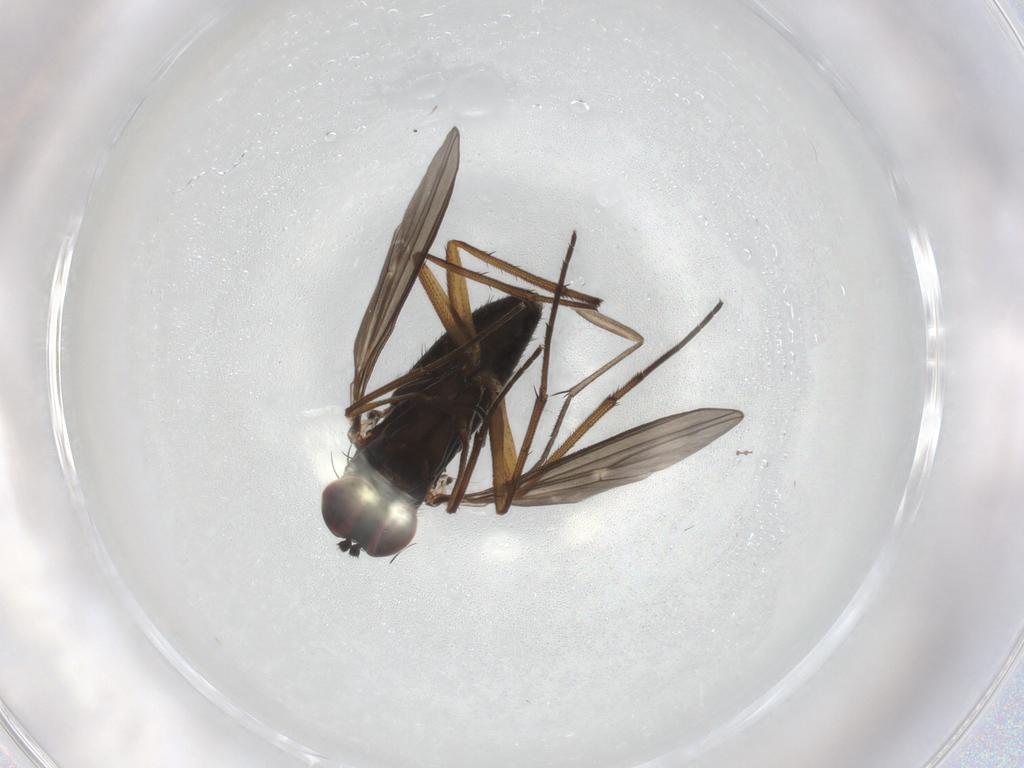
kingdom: Animalia
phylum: Arthropoda
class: Insecta
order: Diptera
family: Dolichopodidae
